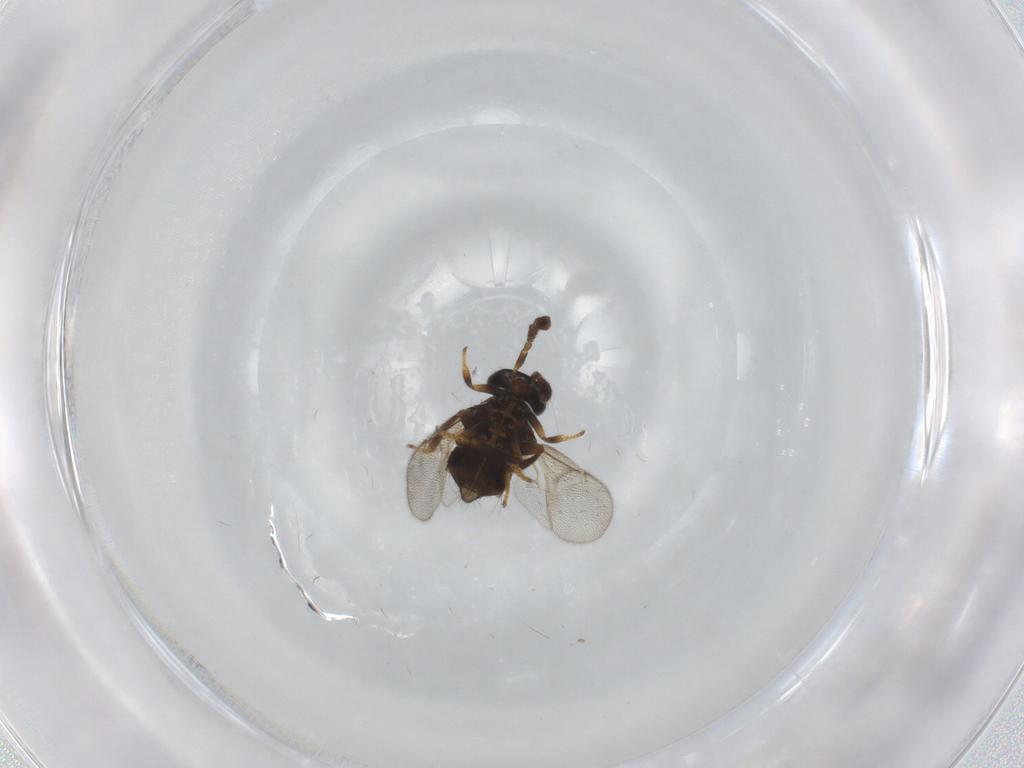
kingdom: Animalia
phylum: Arthropoda
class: Insecta
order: Hymenoptera
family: Encyrtidae
